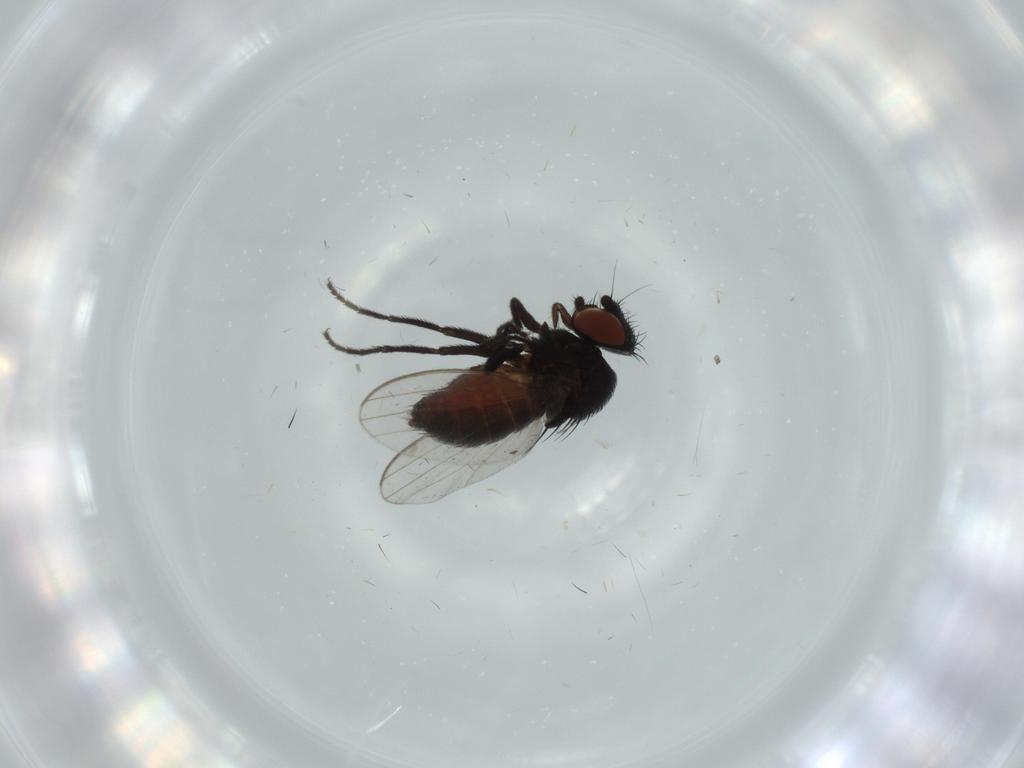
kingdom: Animalia
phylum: Arthropoda
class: Insecta
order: Diptera
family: Milichiidae
